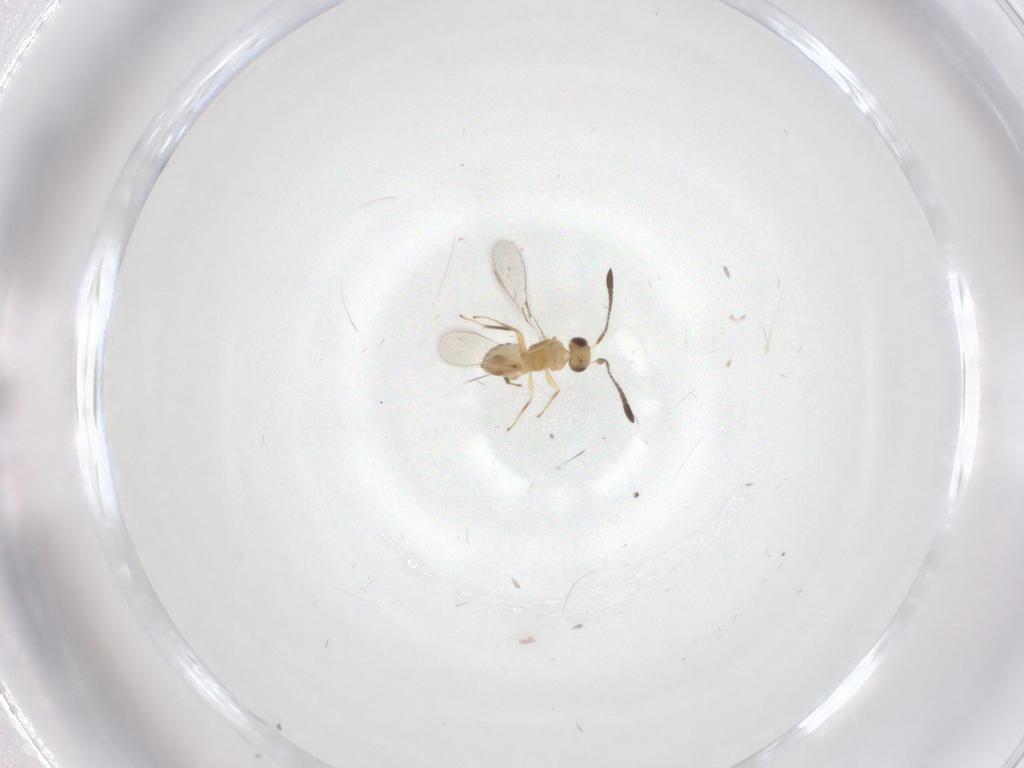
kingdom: Animalia
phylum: Arthropoda
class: Insecta
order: Hymenoptera
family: Mymaridae
